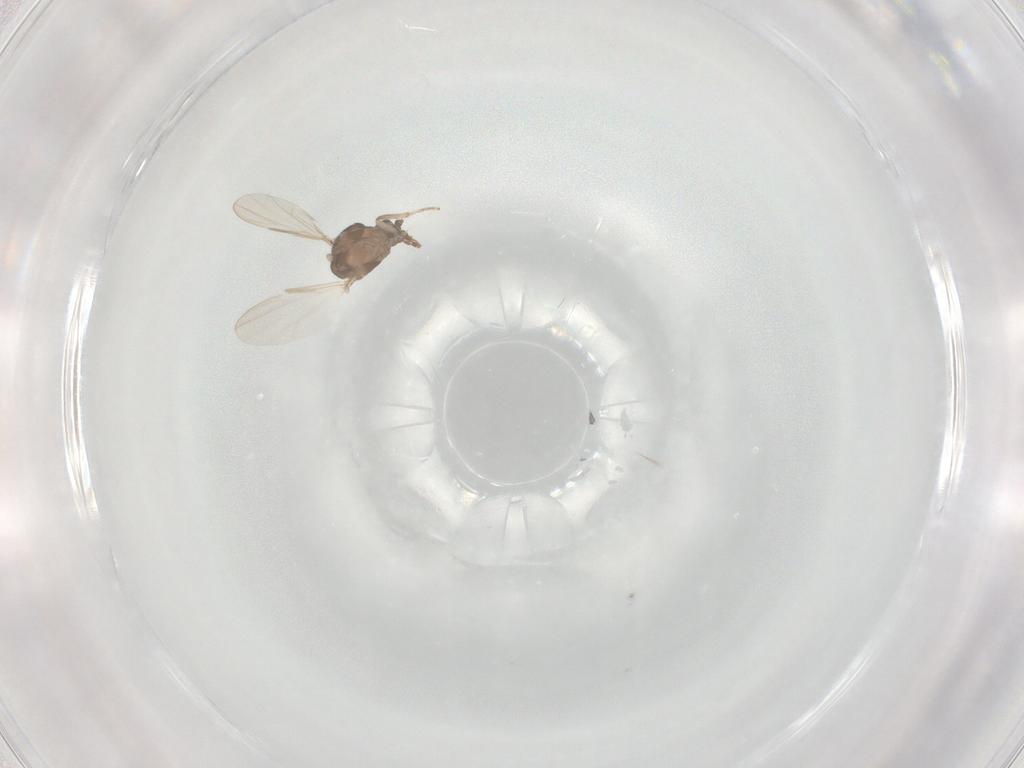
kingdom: Animalia
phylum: Arthropoda
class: Insecta
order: Diptera
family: Ceratopogonidae
